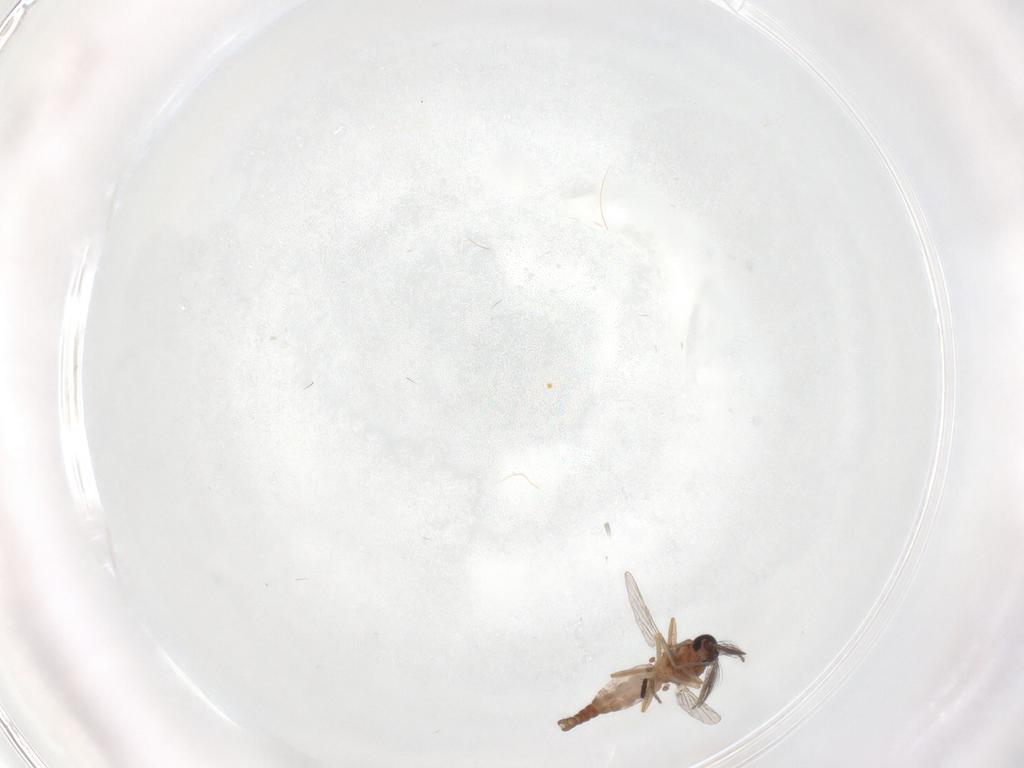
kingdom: Animalia
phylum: Arthropoda
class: Insecta
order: Diptera
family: Ceratopogonidae
